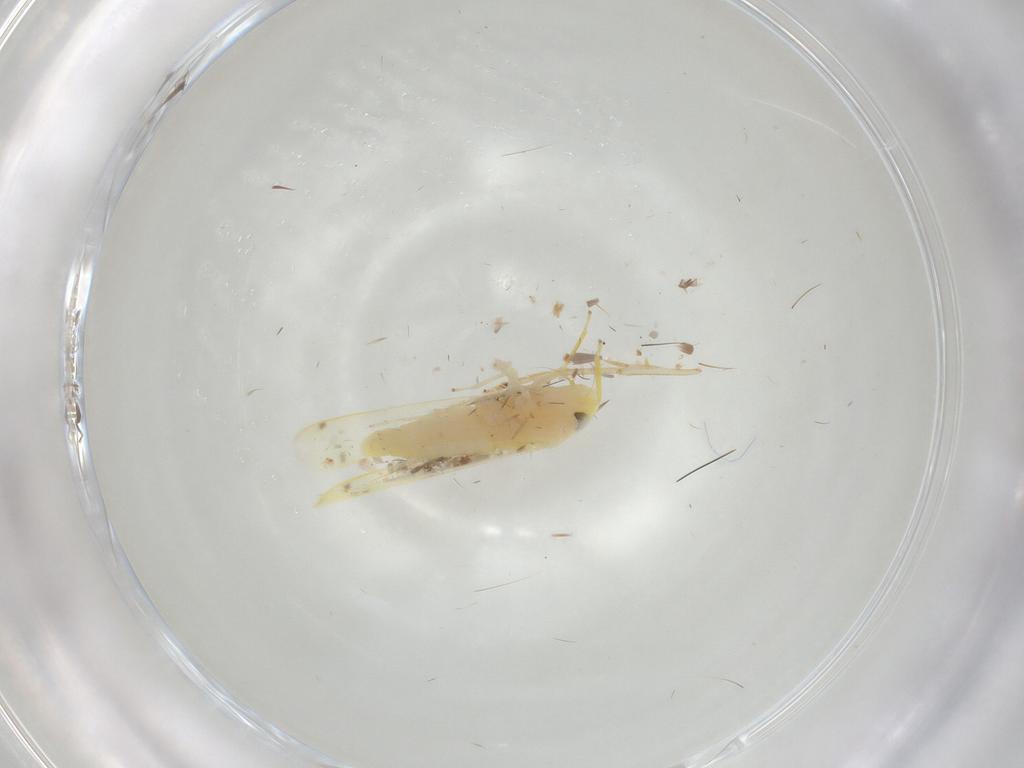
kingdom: Animalia
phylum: Arthropoda
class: Insecta
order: Hemiptera
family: Cicadellidae
